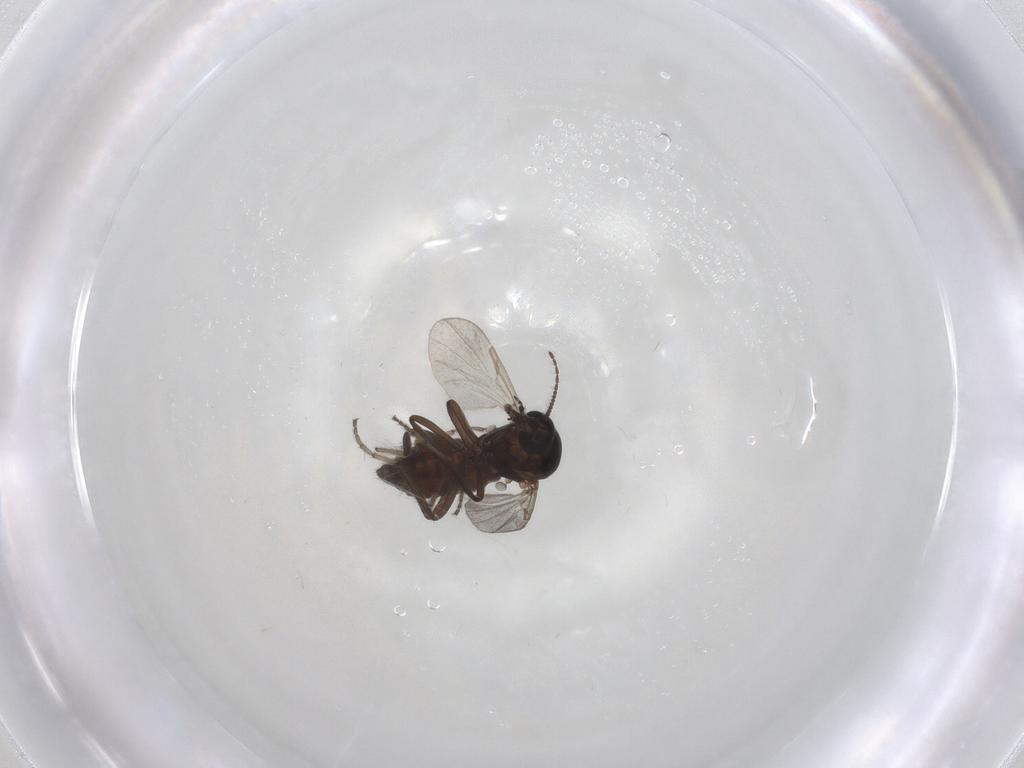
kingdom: Animalia
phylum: Arthropoda
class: Insecta
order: Diptera
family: Ceratopogonidae
